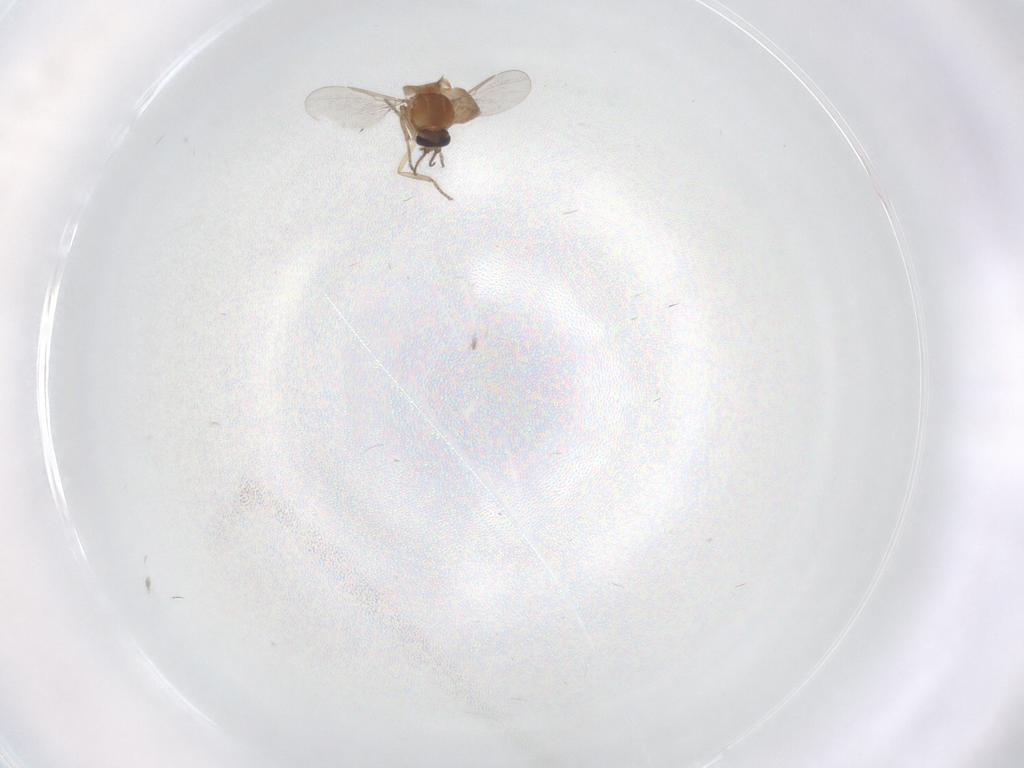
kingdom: Animalia
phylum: Arthropoda
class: Insecta
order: Diptera
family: Ceratopogonidae
